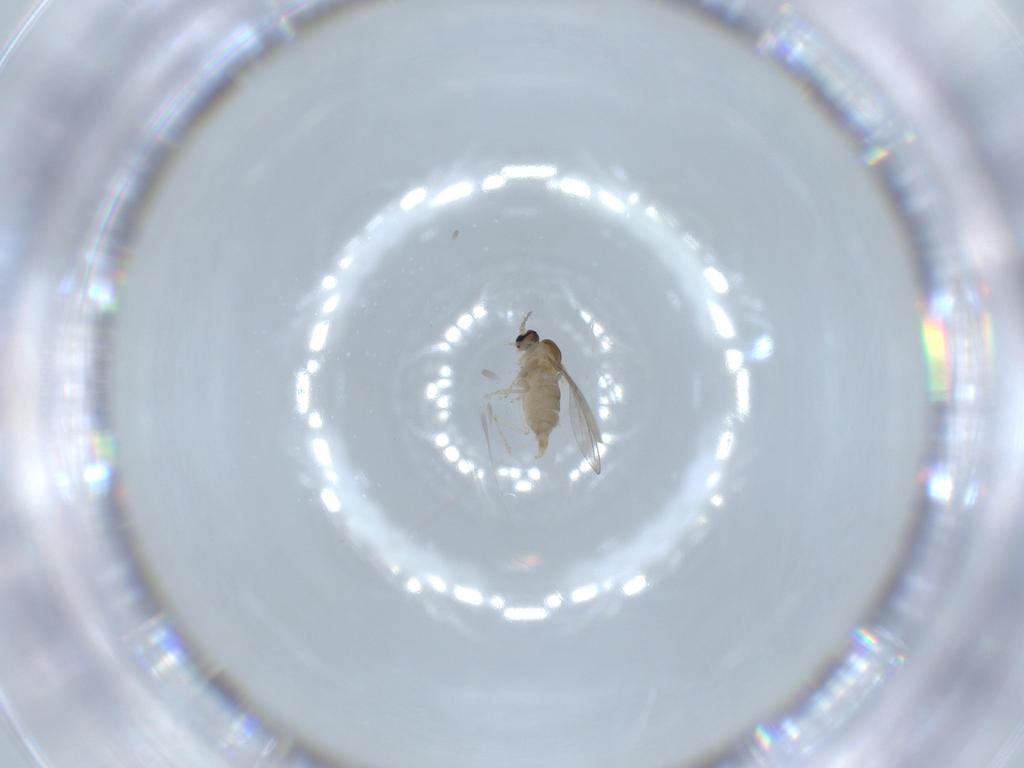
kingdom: Animalia
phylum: Arthropoda
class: Insecta
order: Diptera
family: Cecidomyiidae
